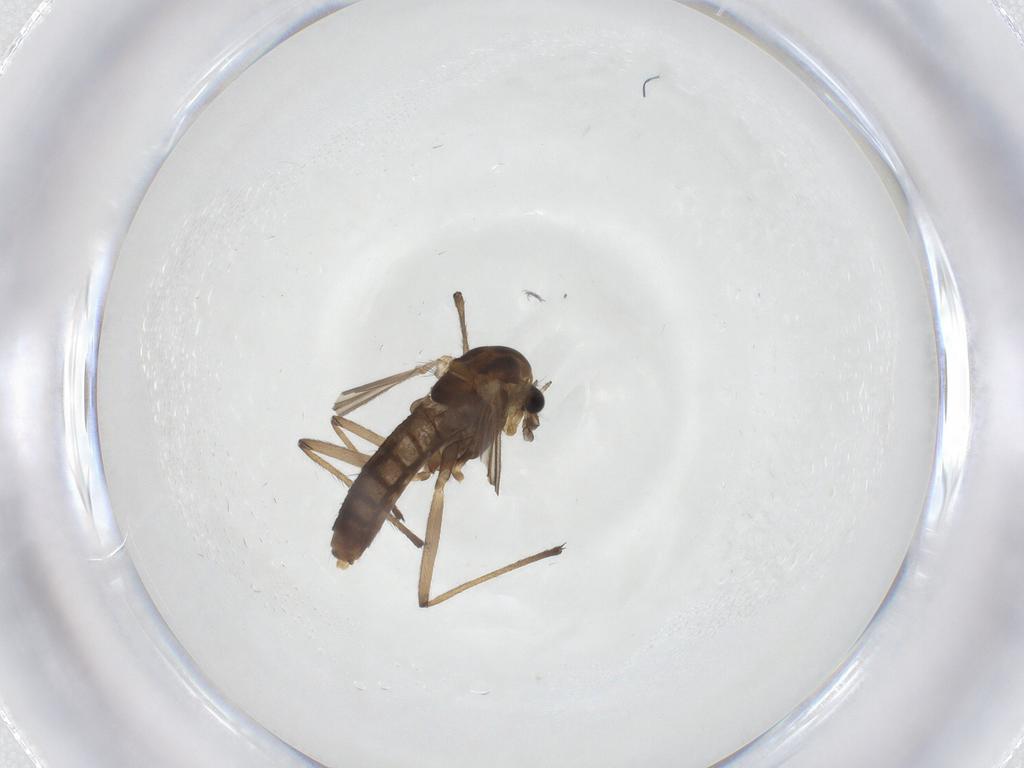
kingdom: Animalia
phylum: Arthropoda
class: Insecta
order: Diptera
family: Chironomidae
